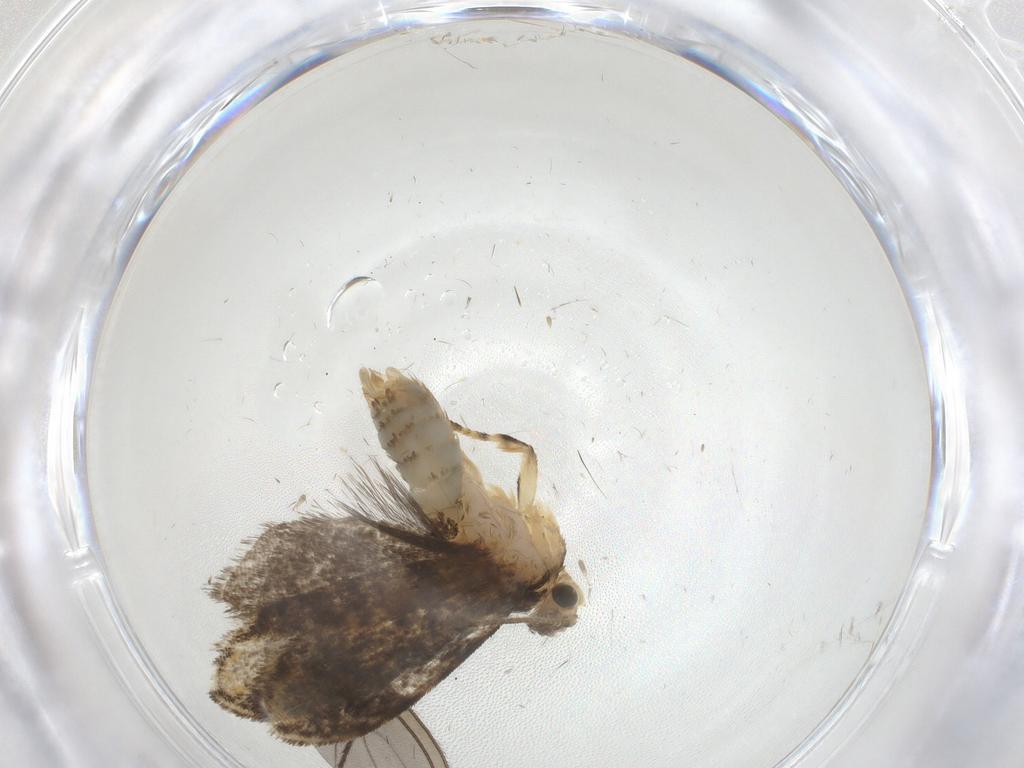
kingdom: Animalia
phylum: Arthropoda
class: Insecta
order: Lepidoptera
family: Tineidae
